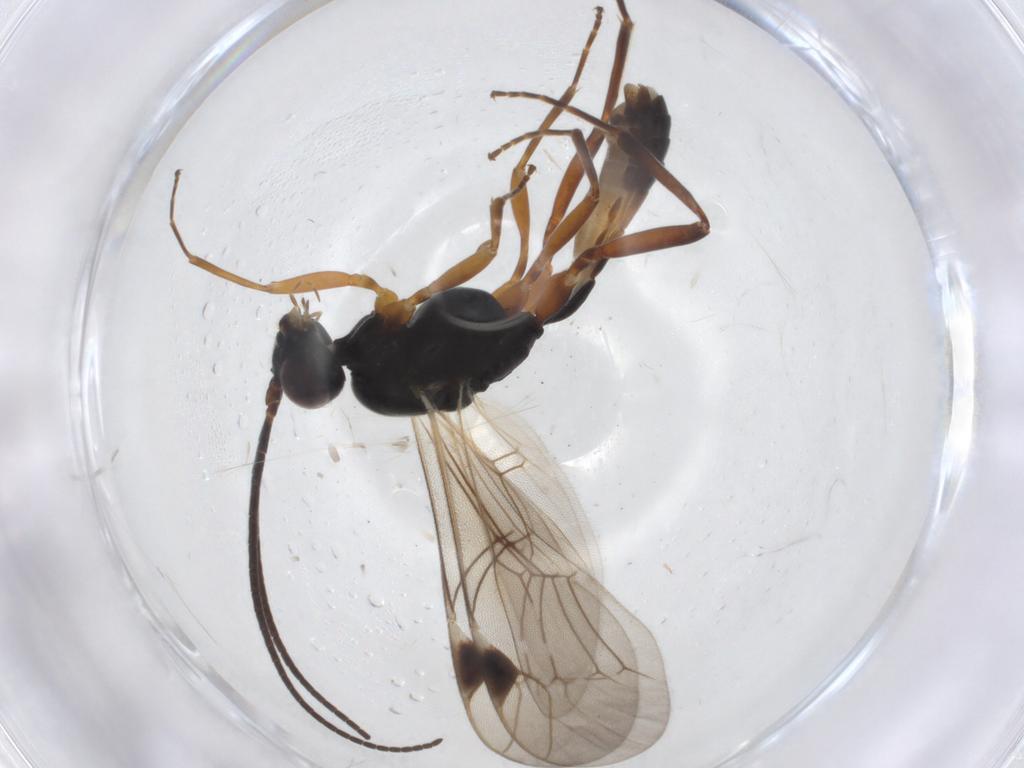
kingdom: Animalia
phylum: Arthropoda
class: Insecta
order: Hymenoptera
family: Ichneumonidae
